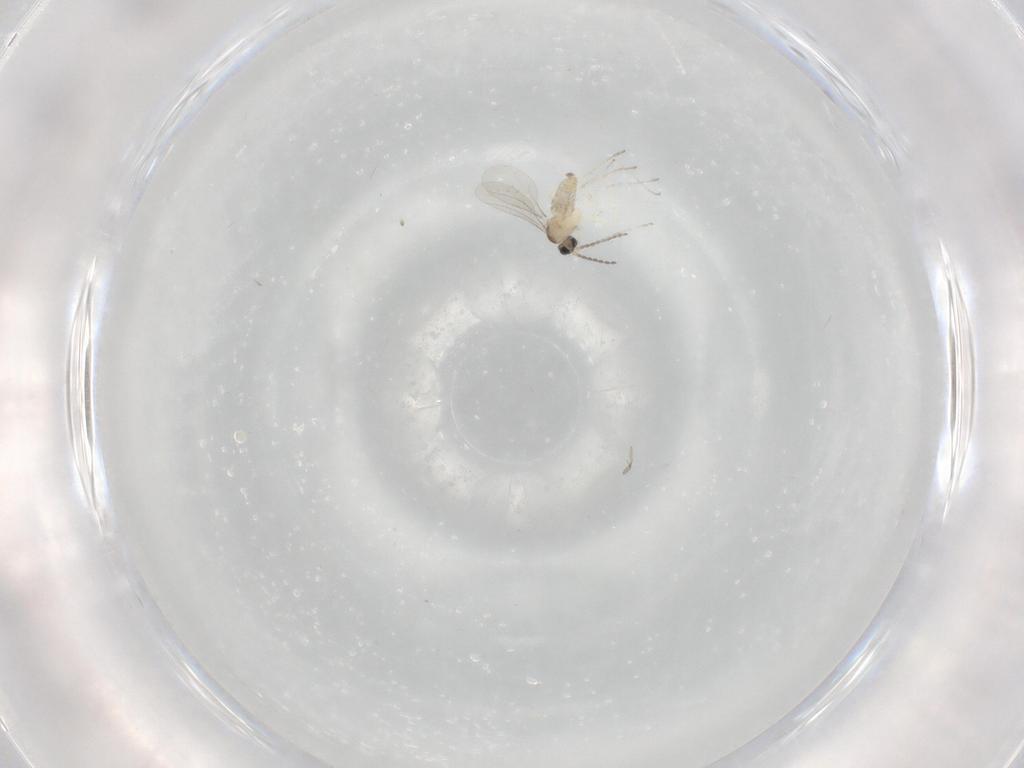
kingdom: Animalia
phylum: Arthropoda
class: Insecta
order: Diptera
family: Cecidomyiidae
